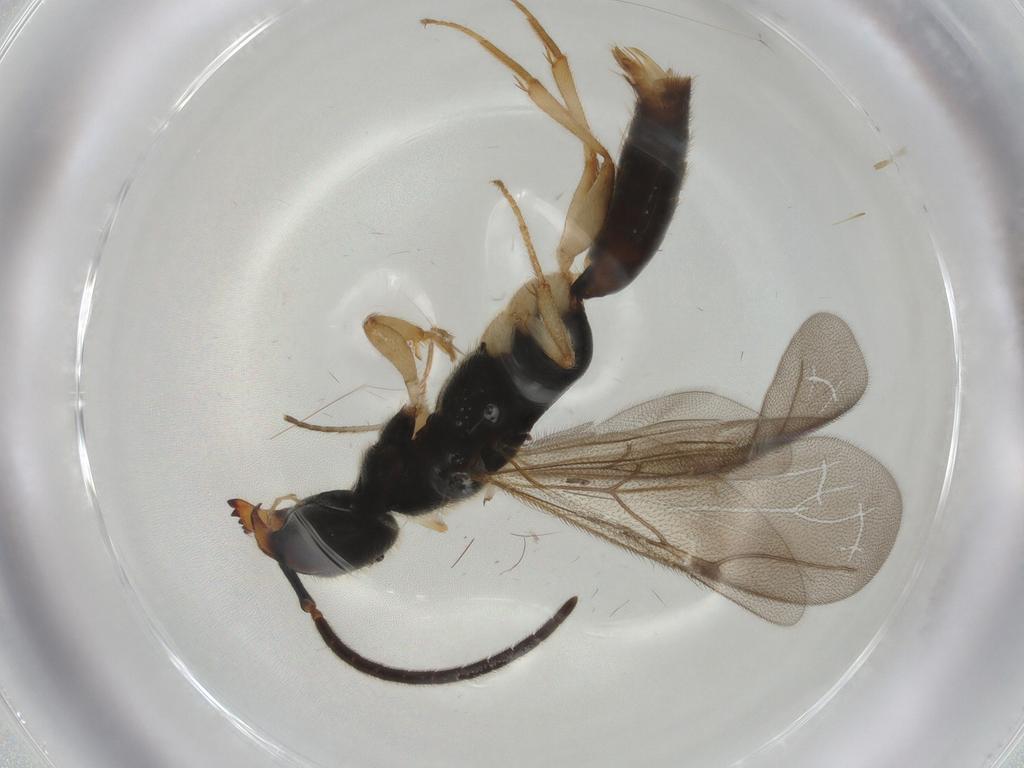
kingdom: Animalia
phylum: Arthropoda
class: Insecta
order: Hymenoptera
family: Bethylidae
